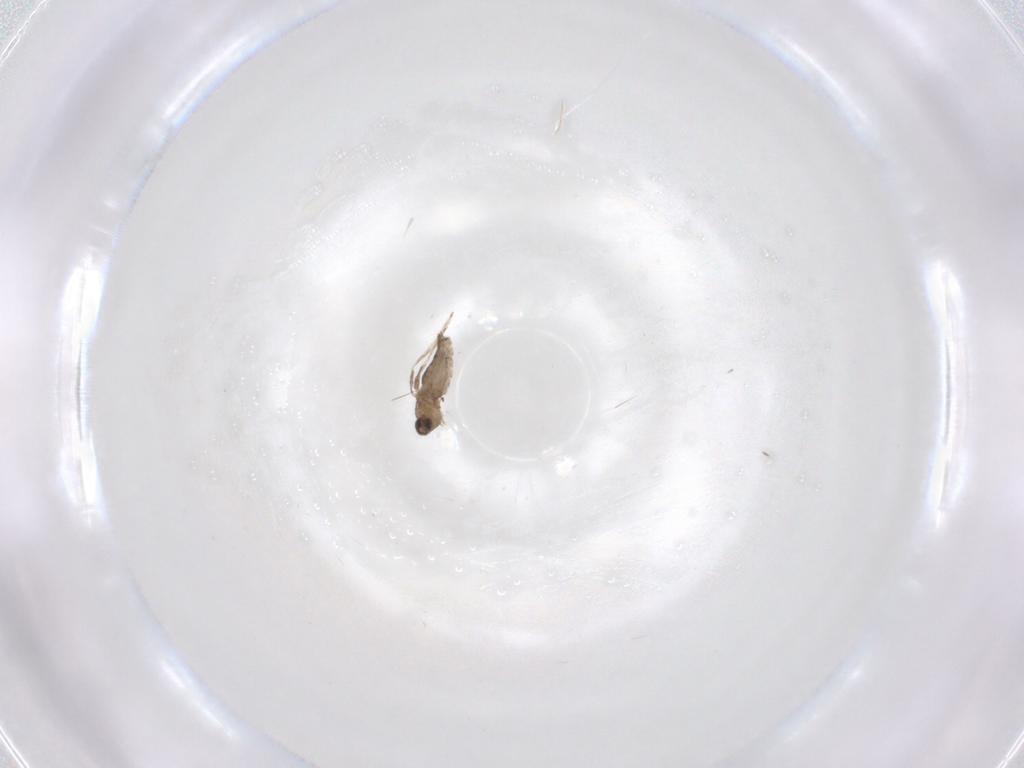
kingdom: Animalia
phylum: Arthropoda
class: Insecta
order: Diptera
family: Cecidomyiidae
